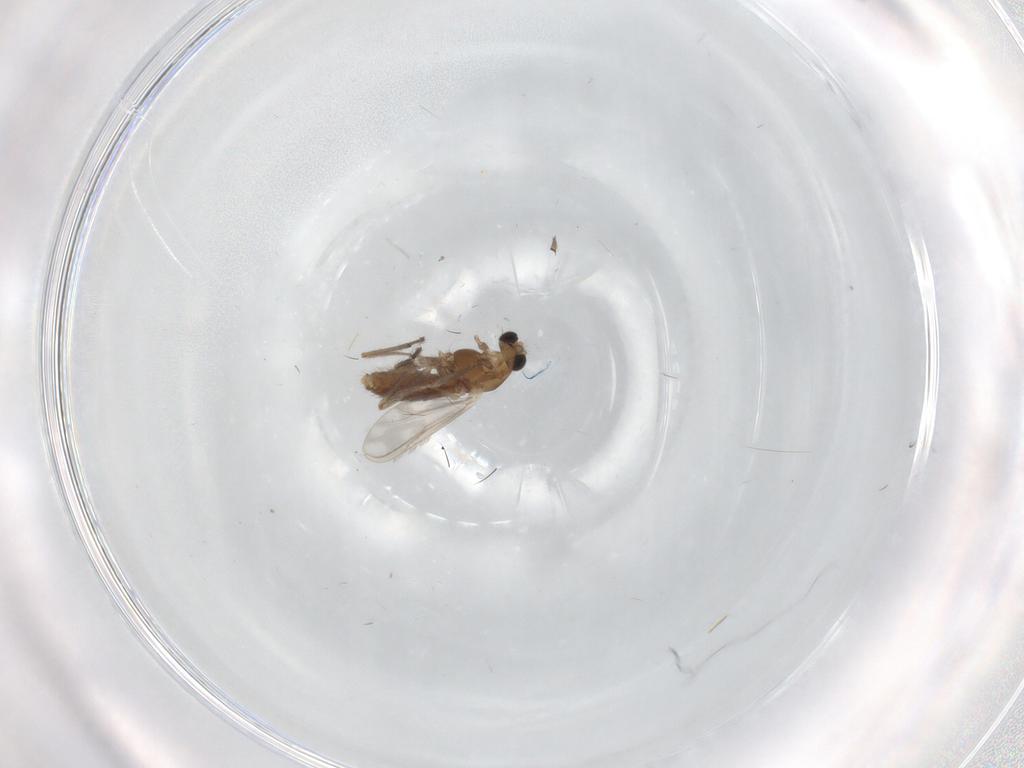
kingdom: Animalia
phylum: Arthropoda
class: Insecta
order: Diptera
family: Chironomidae
